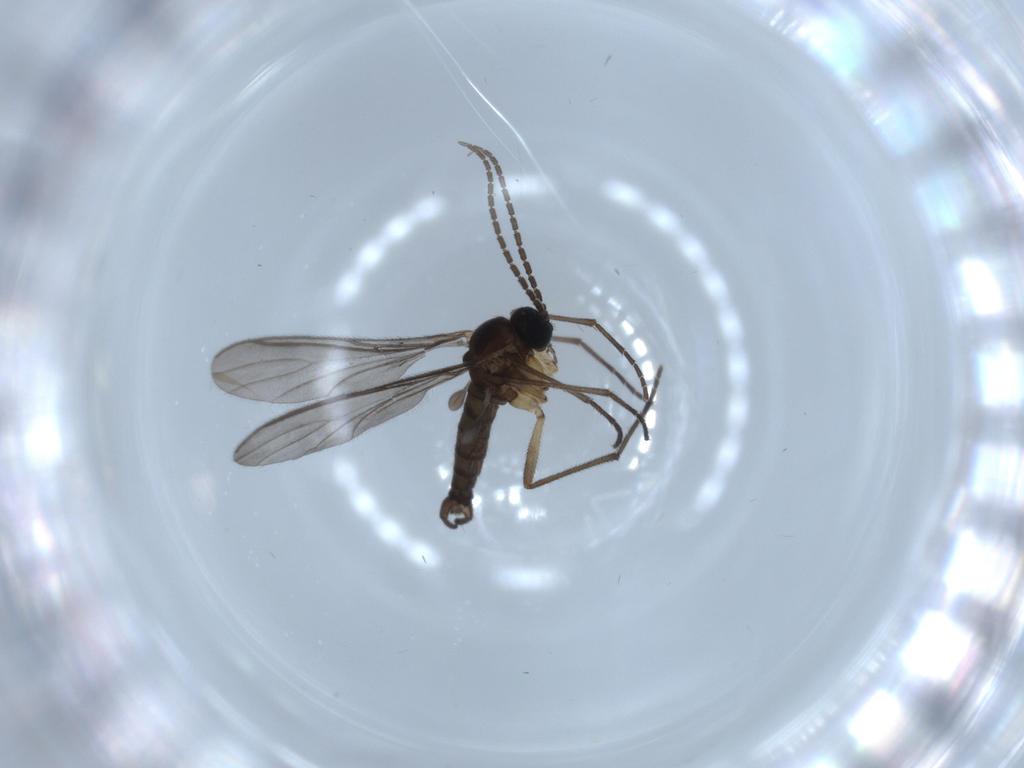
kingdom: Animalia
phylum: Arthropoda
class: Insecta
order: Diptera
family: Sciaridae
